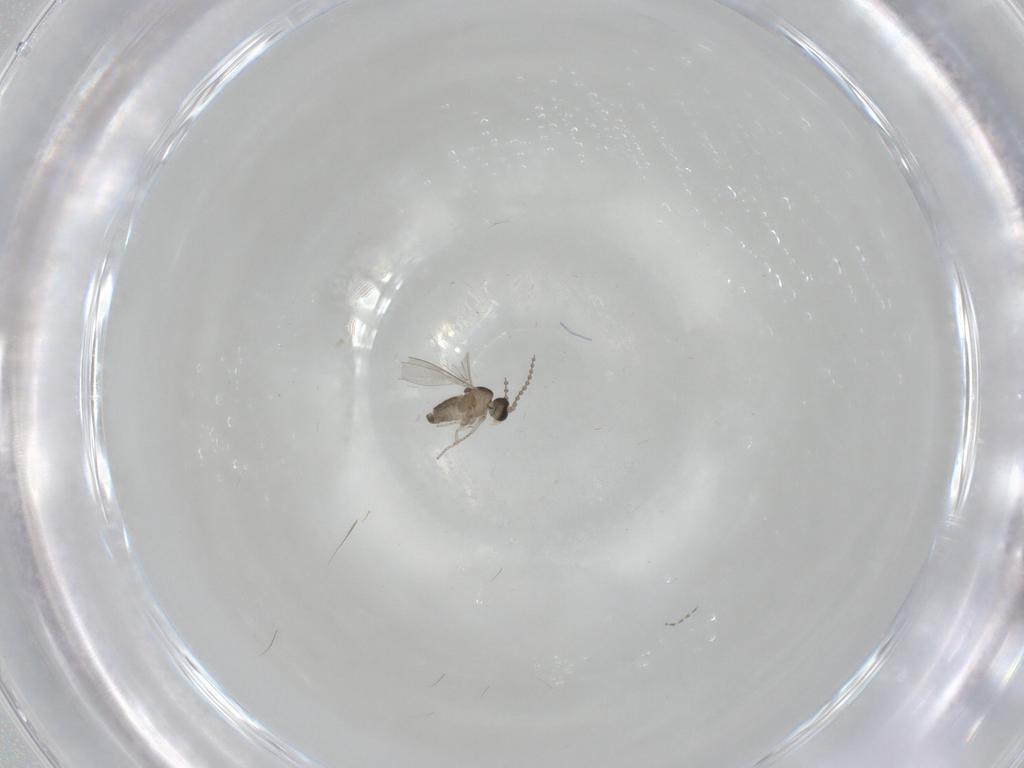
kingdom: Animalia
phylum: Arthropoda
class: Insecta
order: Diptera
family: Cecidomyiidae
